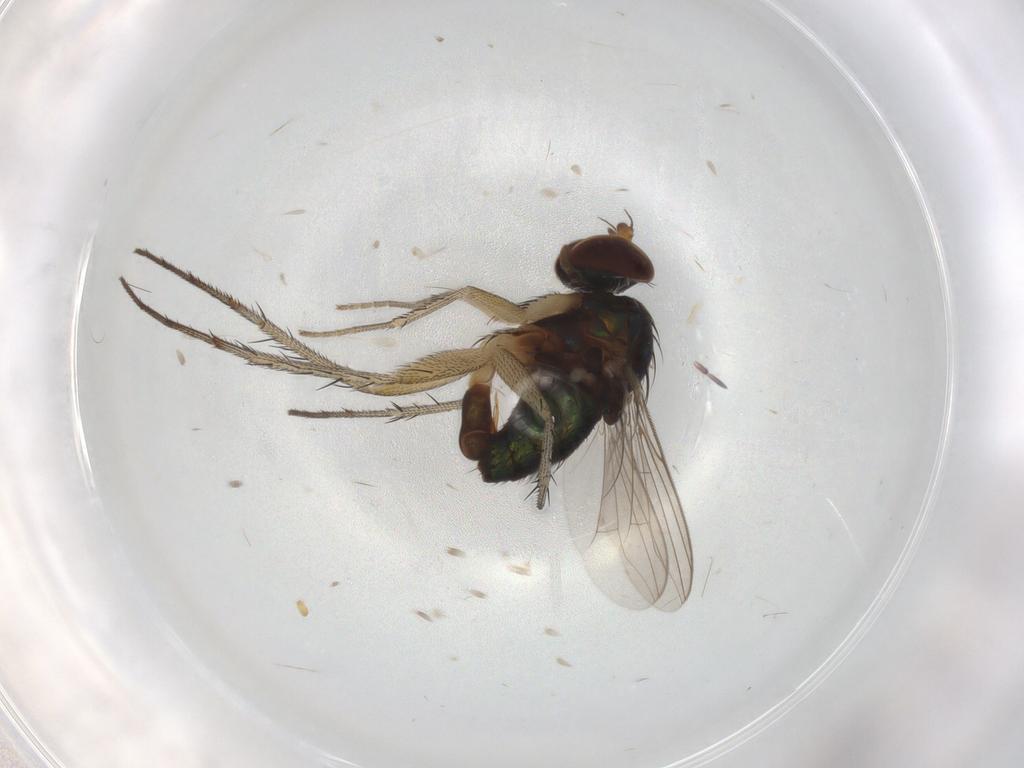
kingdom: Animalia
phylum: Arthropoda
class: Insecta
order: Diptera
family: Dolichopodidae
